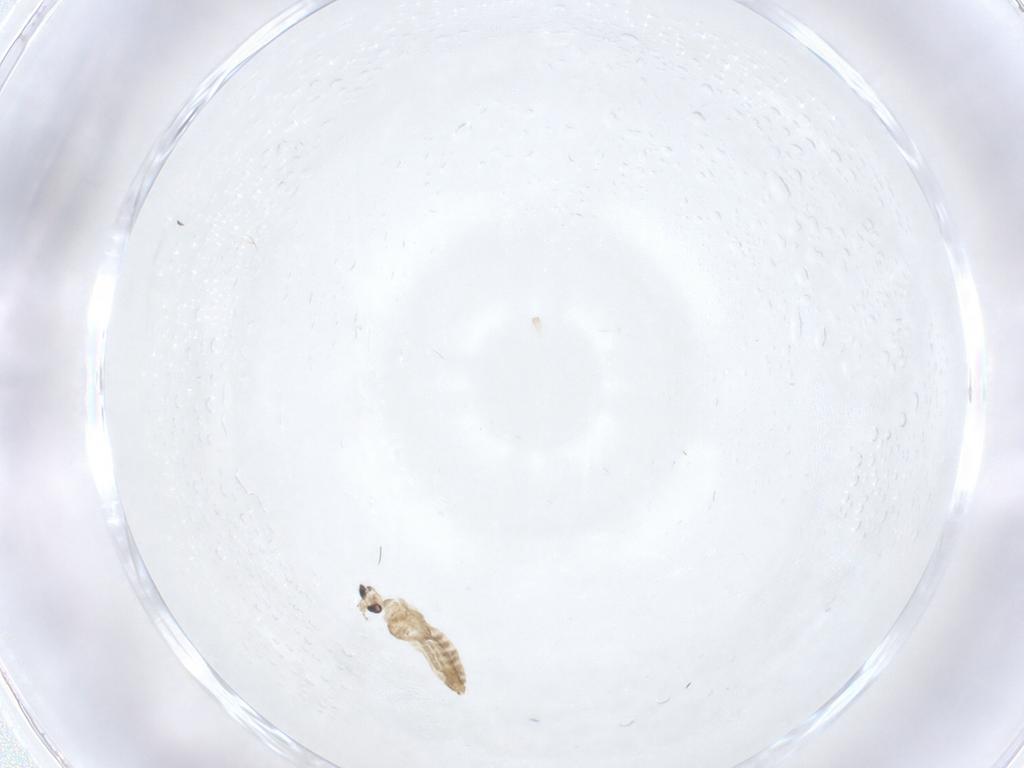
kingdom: Animalia
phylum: Arthropoda
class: Insecta
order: Diptera
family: Chironomidae
